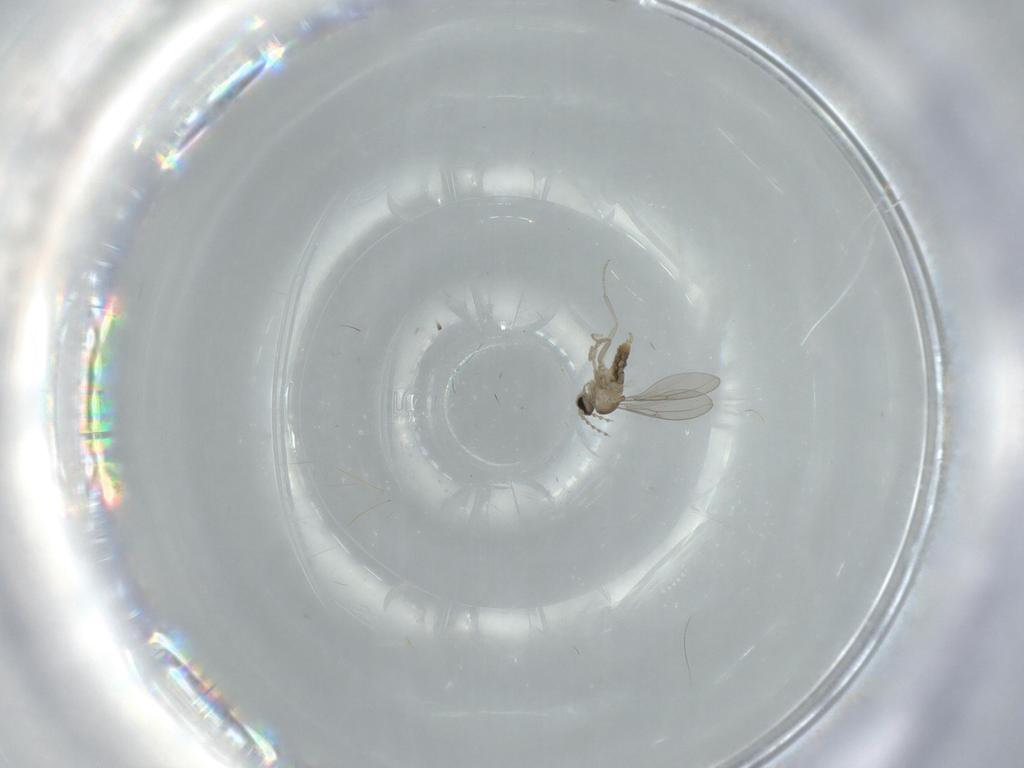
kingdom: Animalia
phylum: Arthropoda
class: Insecta
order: Diptera
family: Cecidomyiidae
